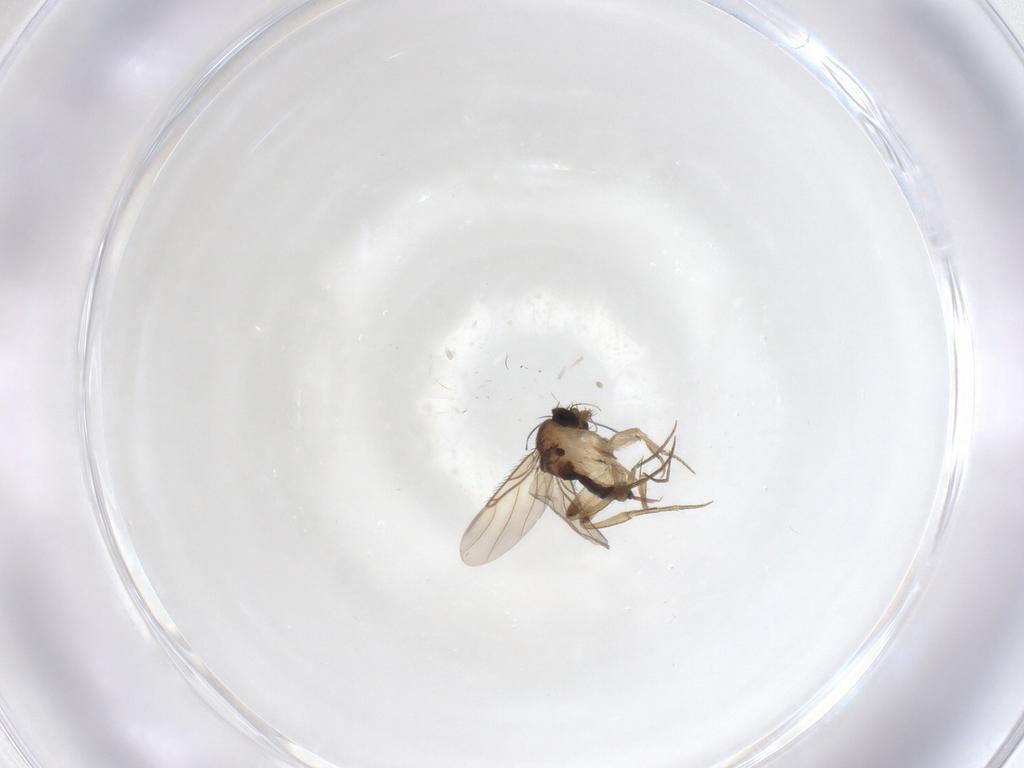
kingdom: Animalia
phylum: Arthropoda
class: Insecta
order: Diptera
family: Phoridae
